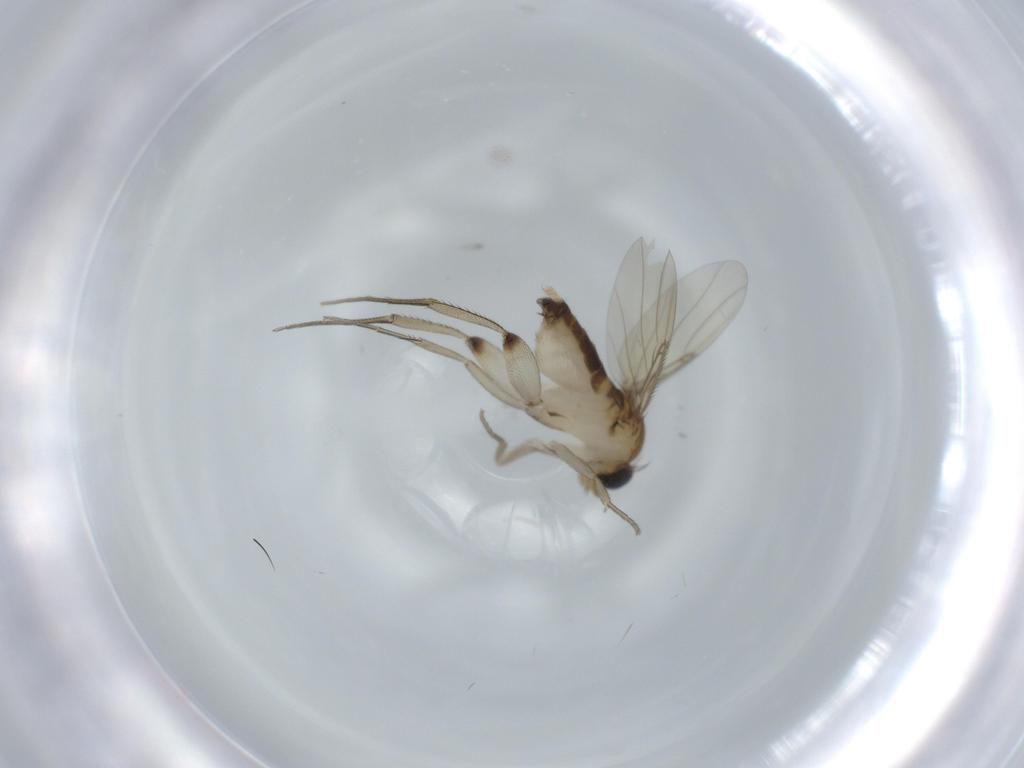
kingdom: Animalia
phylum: Arthropoda
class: Insecta
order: Diptera
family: Phoridae
